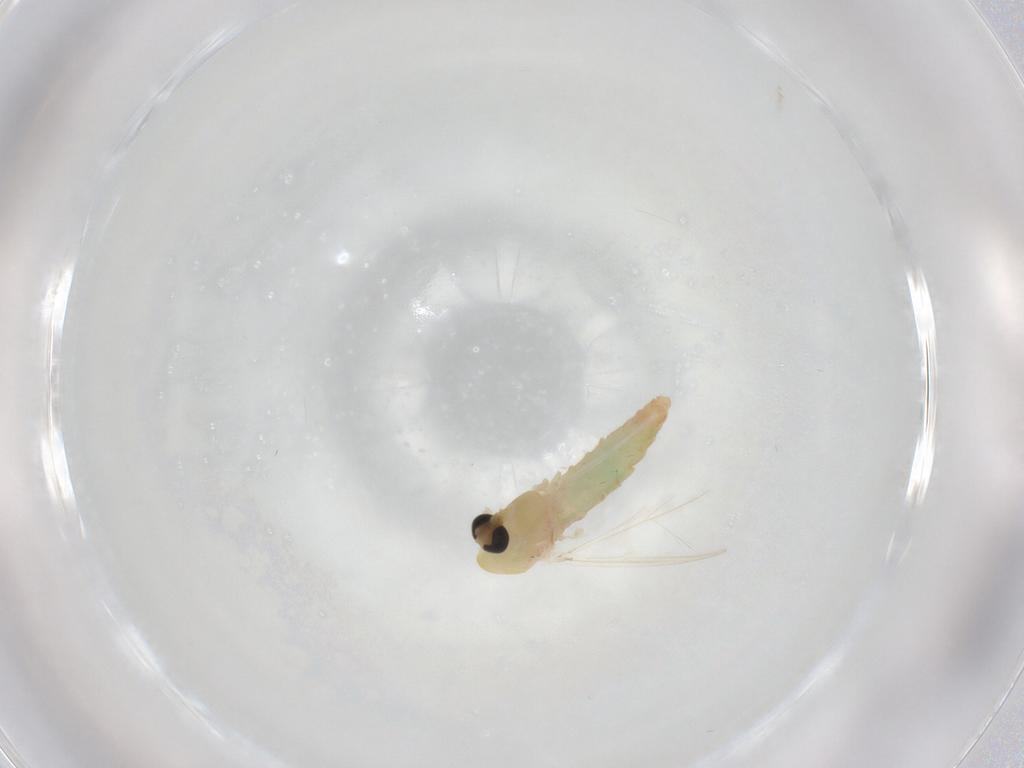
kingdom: Animalia
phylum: Arthropoda
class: Insecta
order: Diptera
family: Chironomidae
